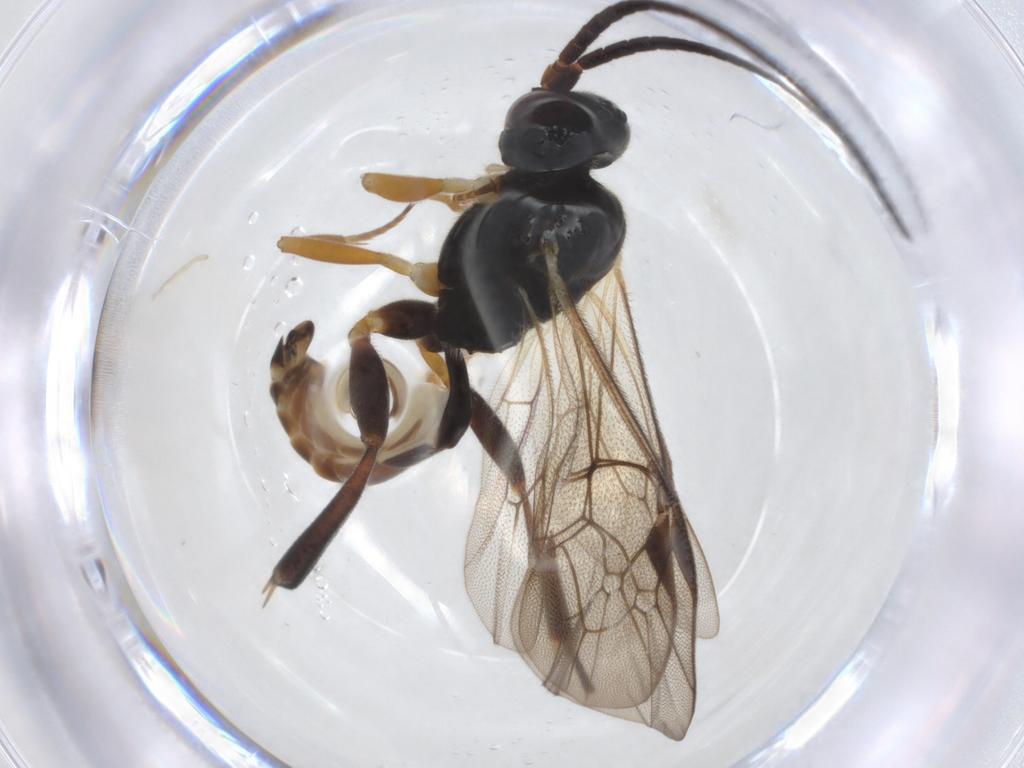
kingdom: Animalia
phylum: Arthropoda
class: Insecta
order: Hymenoptera
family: Ichneumonidae
